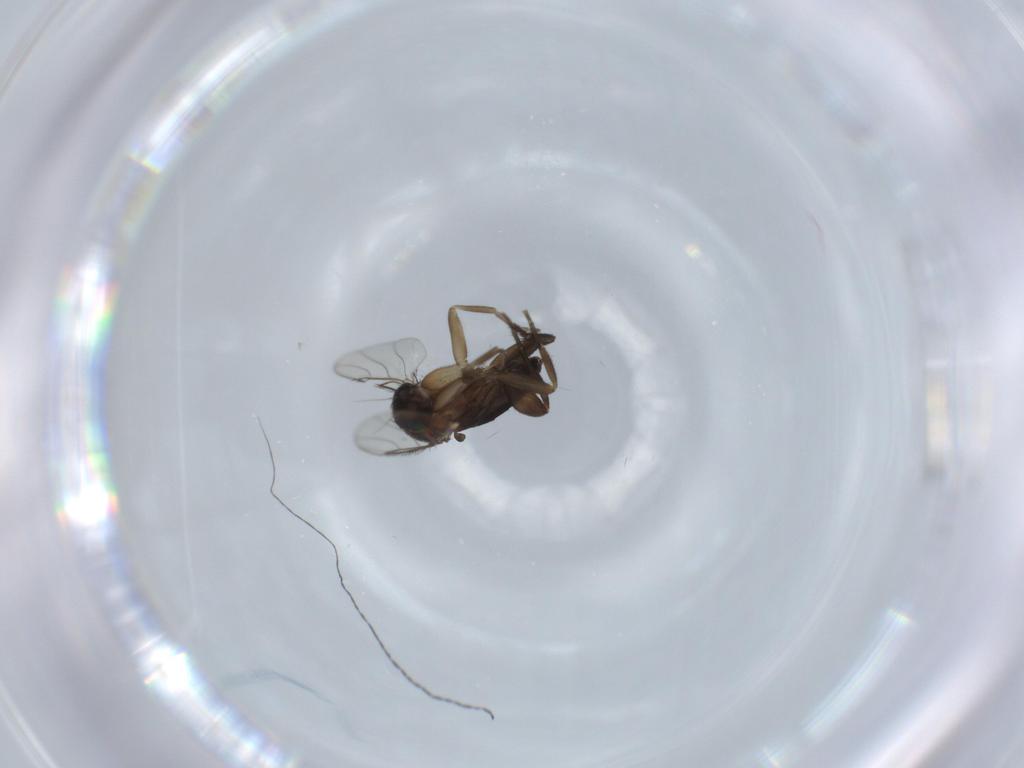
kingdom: Animalia
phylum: Arthropoda
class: Insecta
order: Diptera
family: Phoridae
